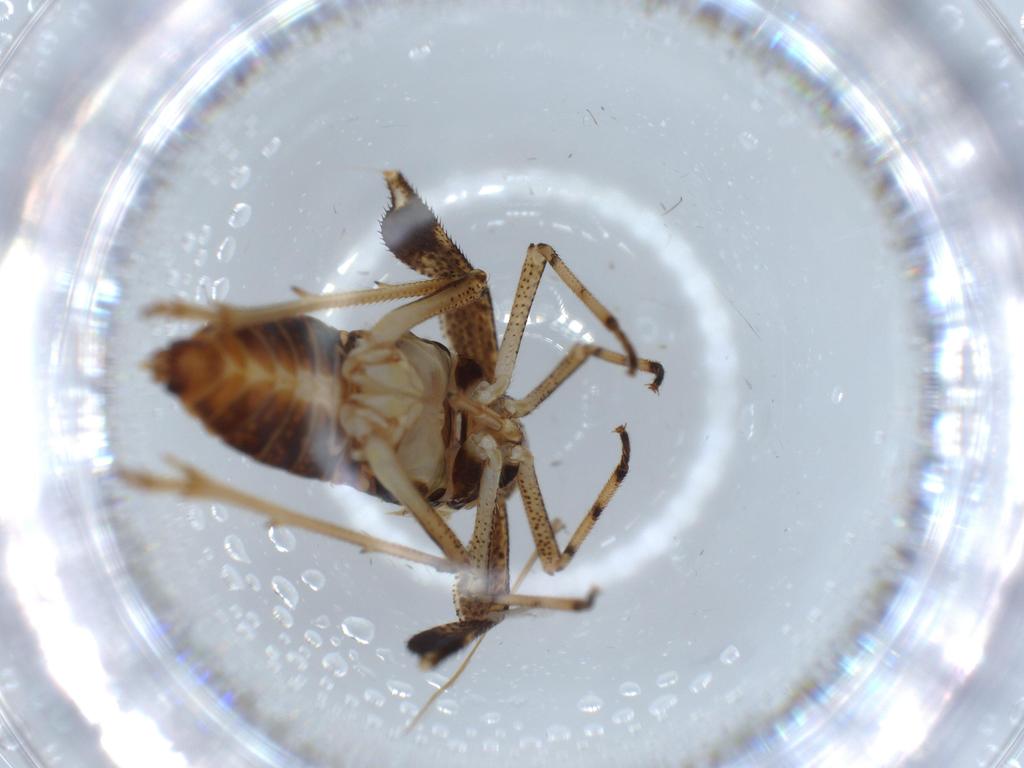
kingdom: Animalia
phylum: Arthropoda
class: Insecta
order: Hemiptera
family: Aleyrodidae
